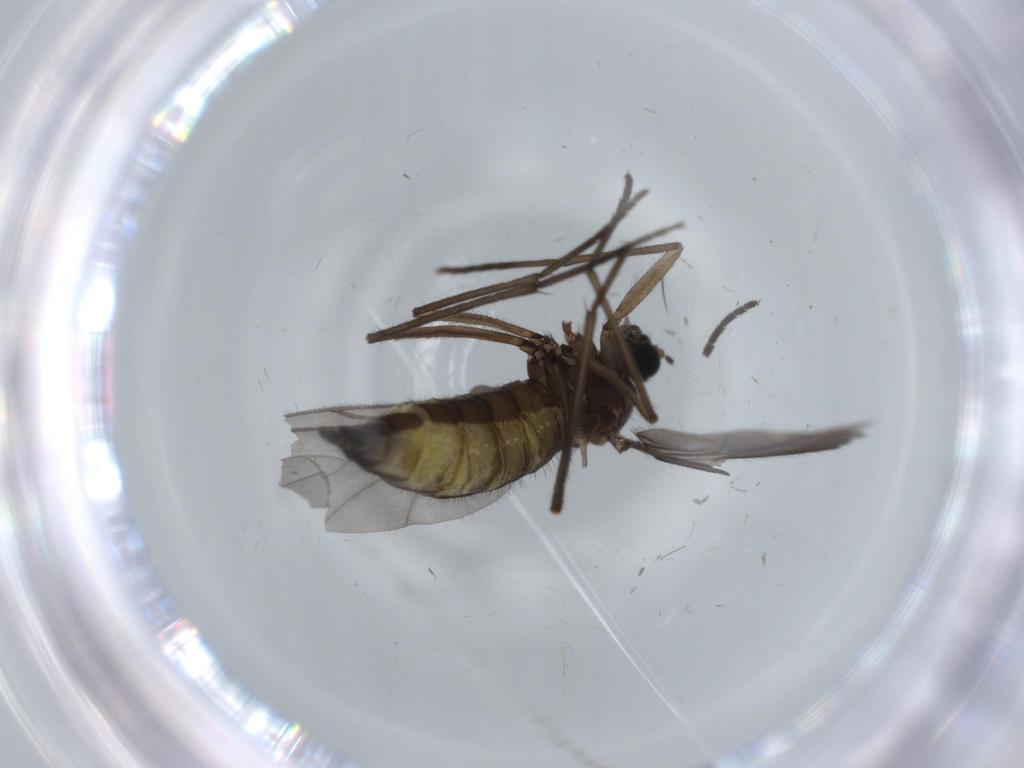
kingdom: Animalia
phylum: Arthropoda
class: Insecta
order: Diptera
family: Sciaridae
